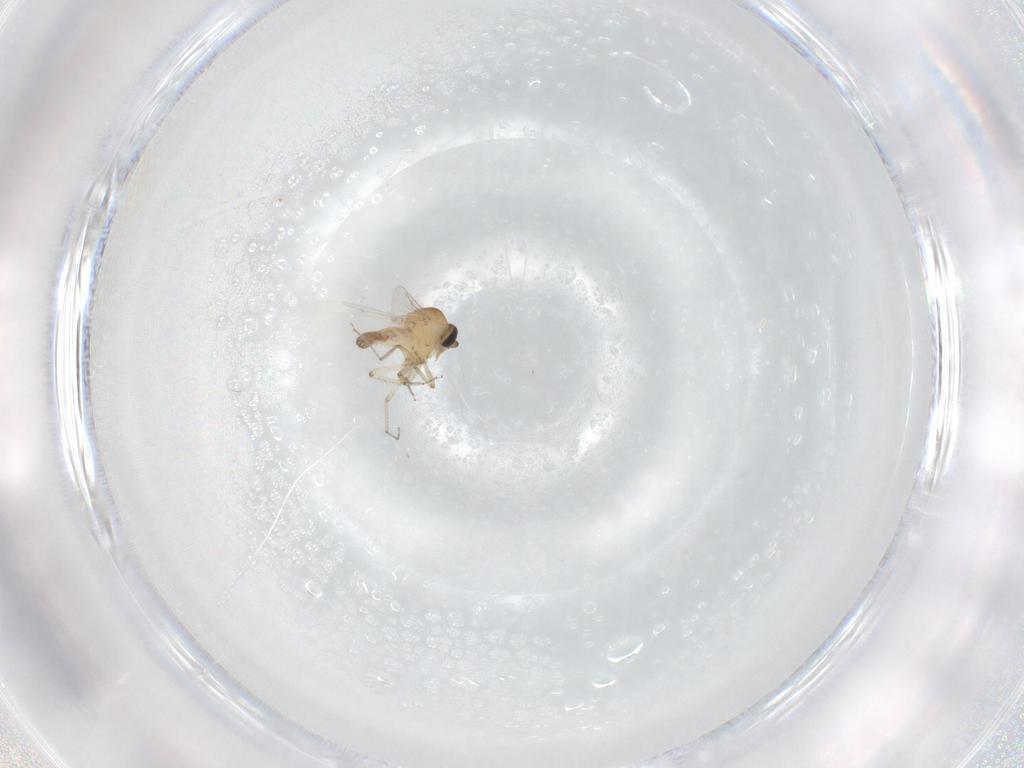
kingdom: Animalia
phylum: Arthropoda
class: Insecta
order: Diptera
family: Ceratopogonidae
